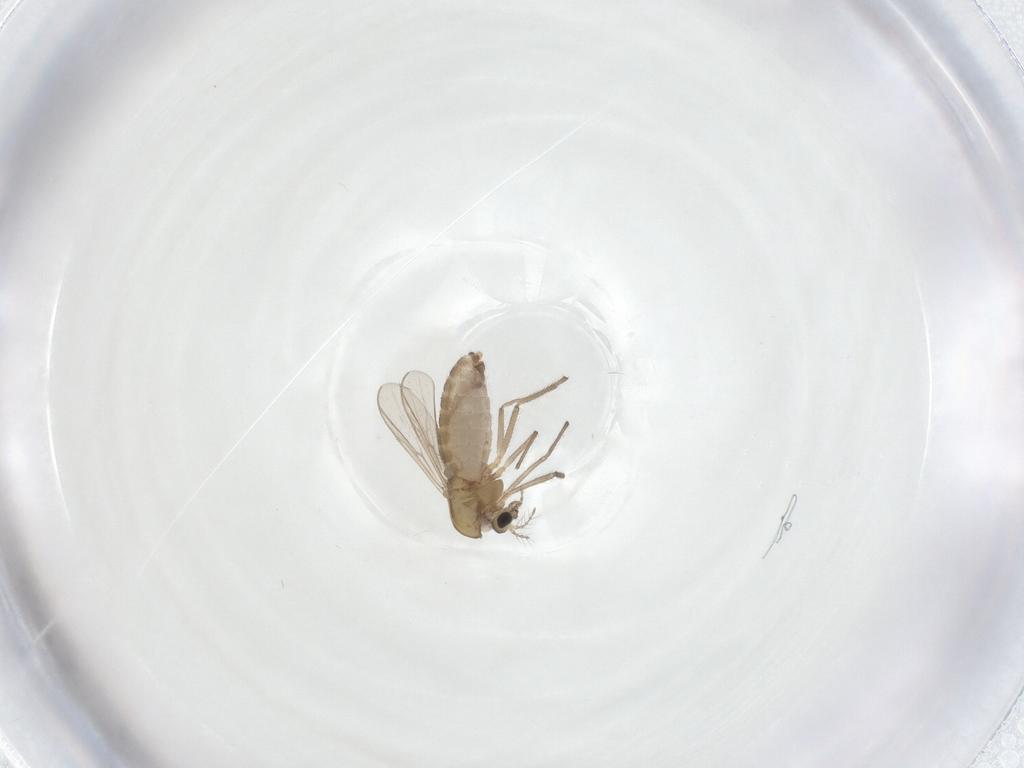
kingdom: Animalia
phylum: Arthropoda
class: Insecta
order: Diptera
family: Chironomidae
